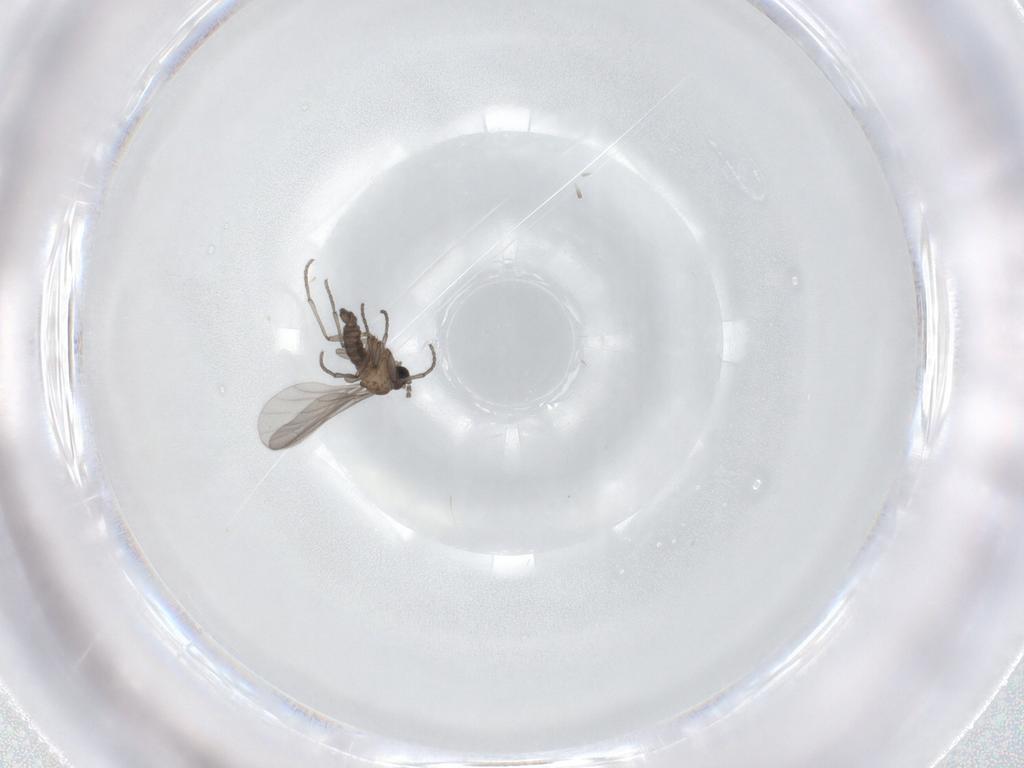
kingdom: Animalia
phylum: Arthropoda
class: Insecta
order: Diptera
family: Sciaridae
